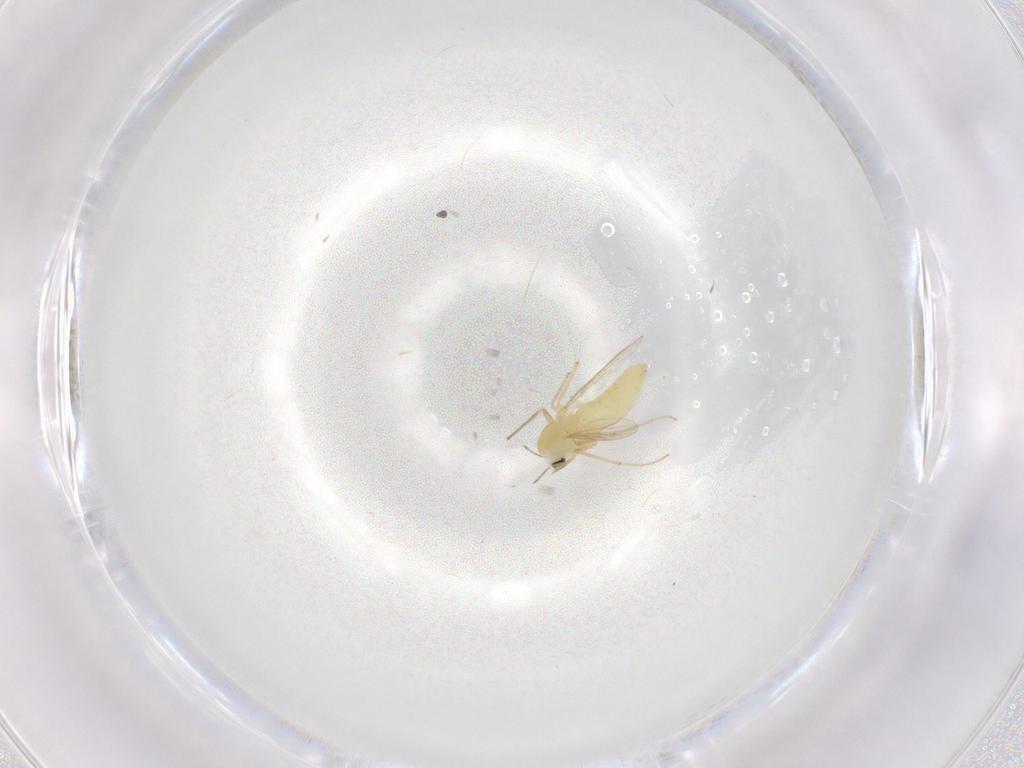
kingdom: Animalia
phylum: Arthropoda
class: Insecta
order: Diptera
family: Chironomidae
